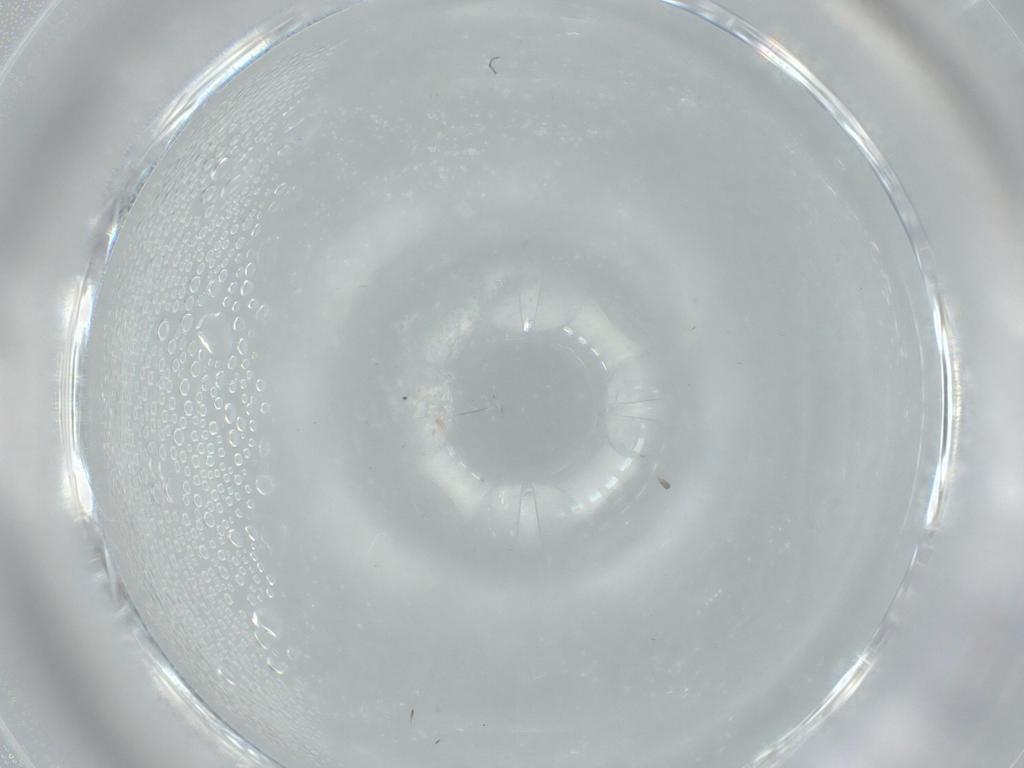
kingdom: Animalia
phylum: Arthropoda
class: Insecta
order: Hymenoptera
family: Diapriidae
